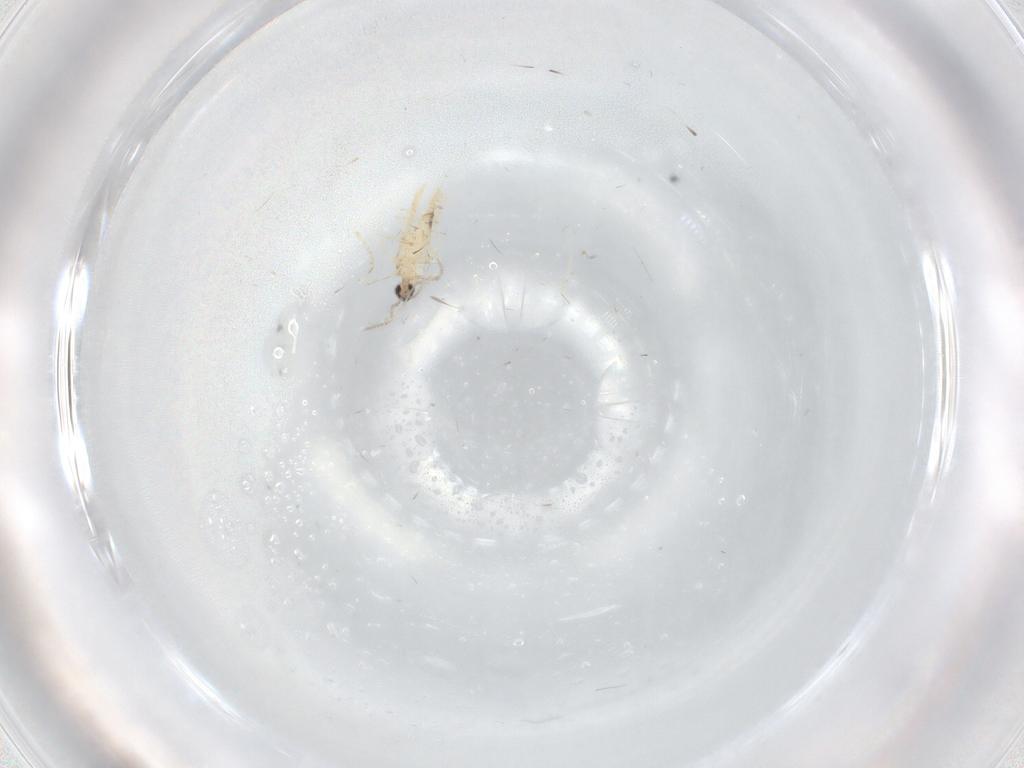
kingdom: Animalia
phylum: Arthropoda
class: Insecta
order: Diptera
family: Cecidomyiidae
